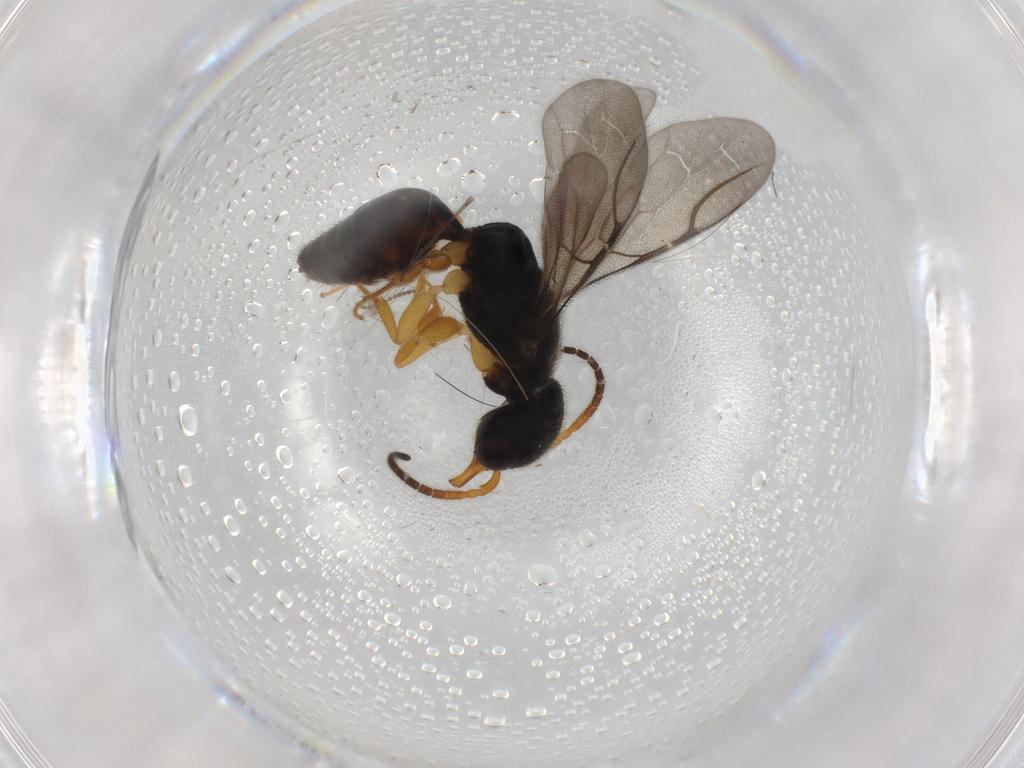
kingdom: Animalia
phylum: Arthropoda
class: Insecta
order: Hymenoptera
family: Bethylidae
